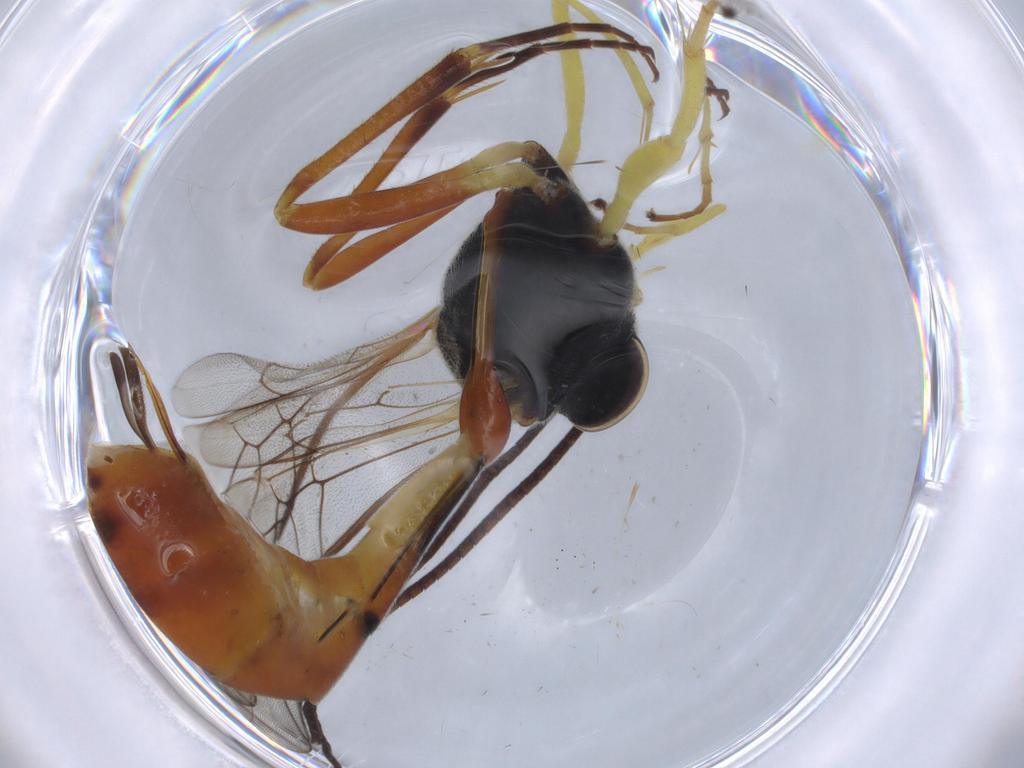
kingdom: Animalia
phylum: Arthropoda
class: Insecta
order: Hymenoptera
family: Ichneumonidae
